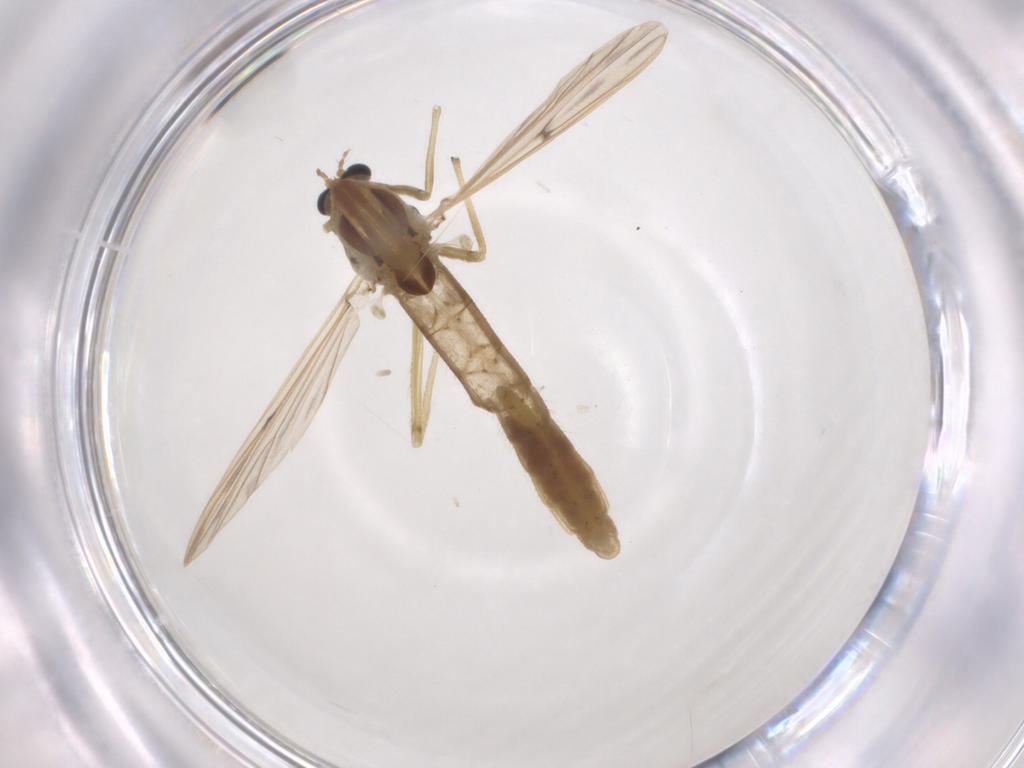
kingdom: Animalia
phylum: Arthropoda
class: Insecta
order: Diptera
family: Chironomidae
